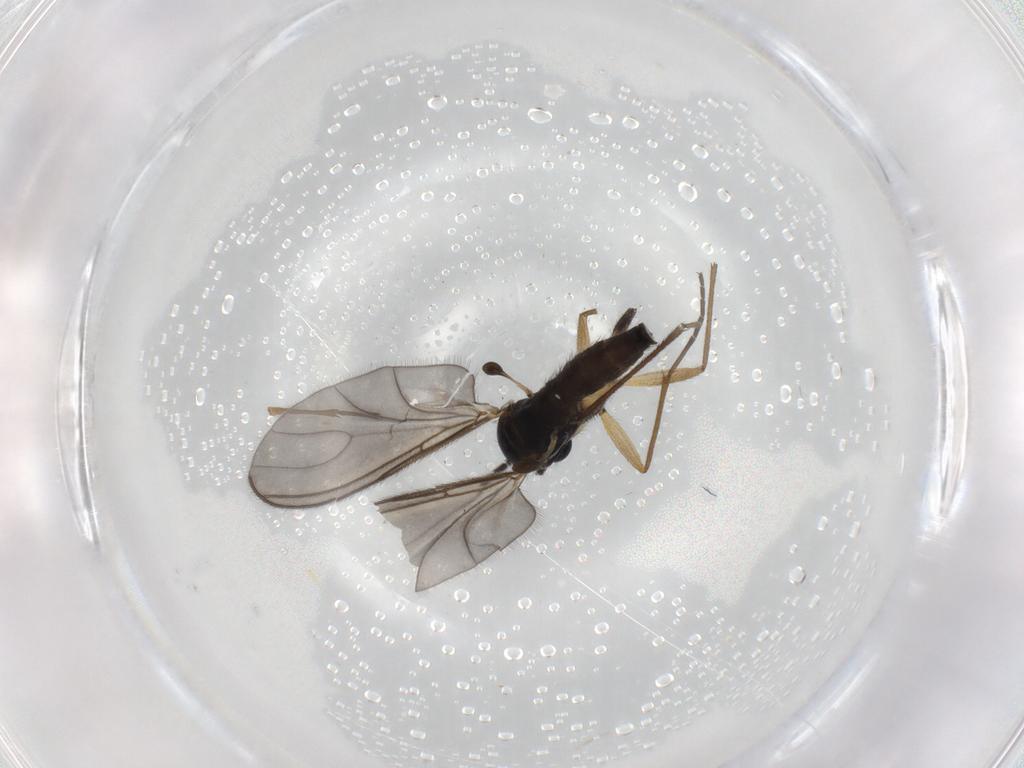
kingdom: Animalia
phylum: Arthropoda
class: Insecta
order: Diptera
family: Sciaridae
